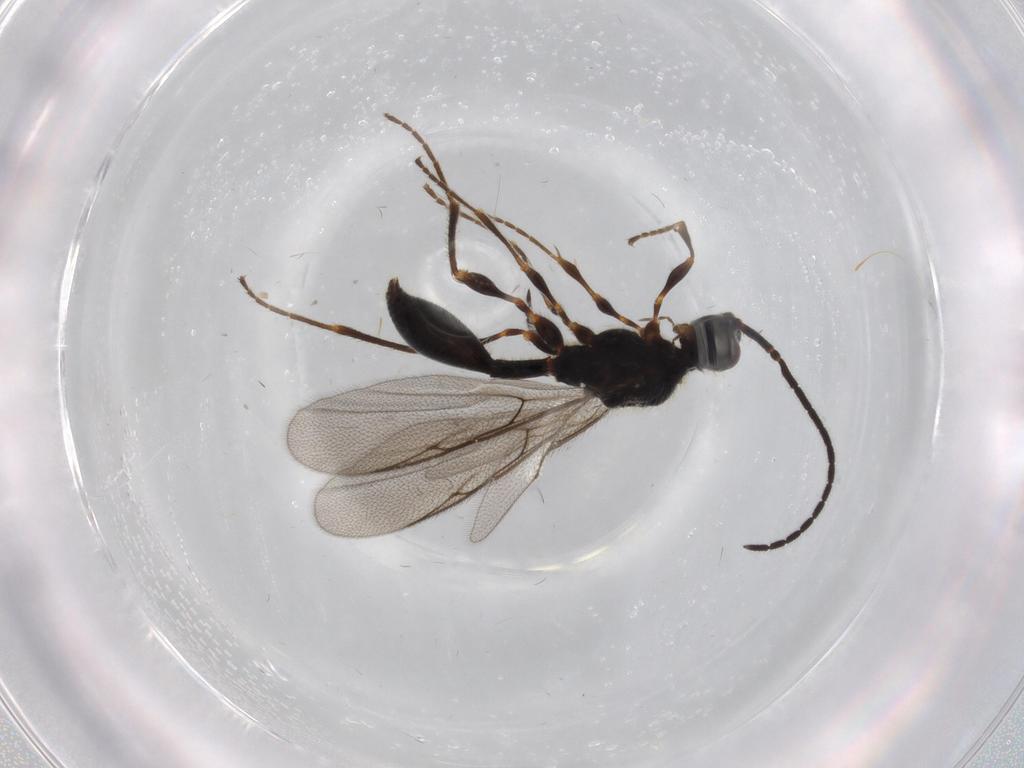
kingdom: Animalia
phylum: Arthropoda
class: Insecta
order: Hymenoptera
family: Diapriidae
